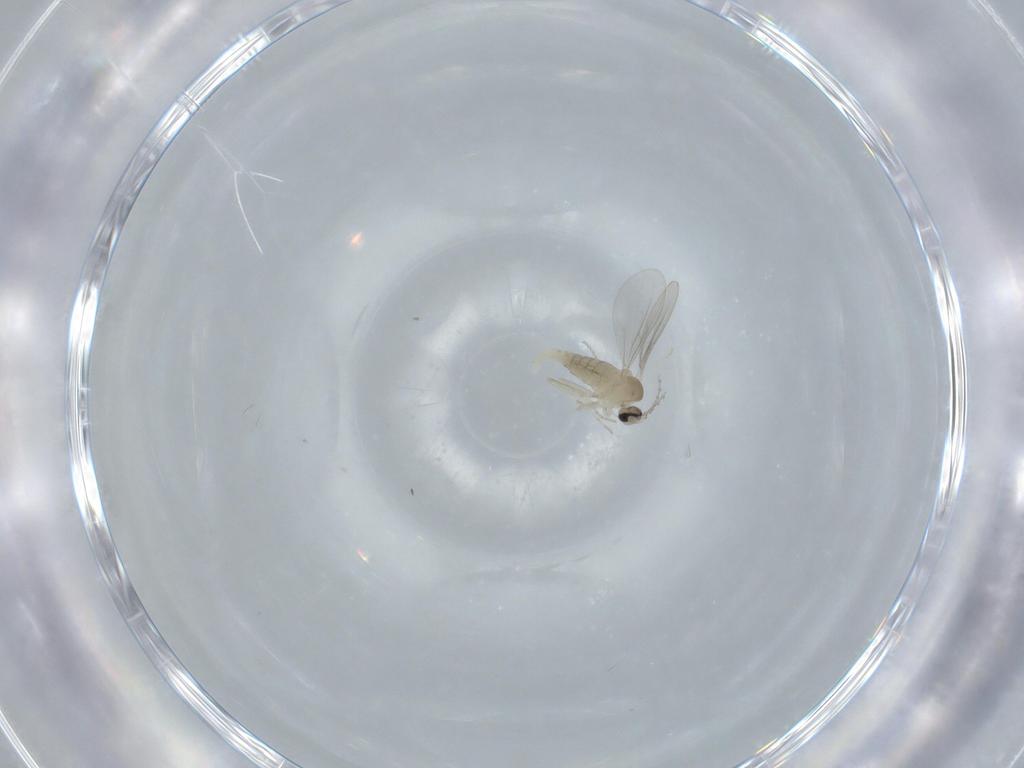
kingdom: Animalia
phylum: Arthropoda
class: Insecta
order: Diptera
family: Cecidomyiidae
